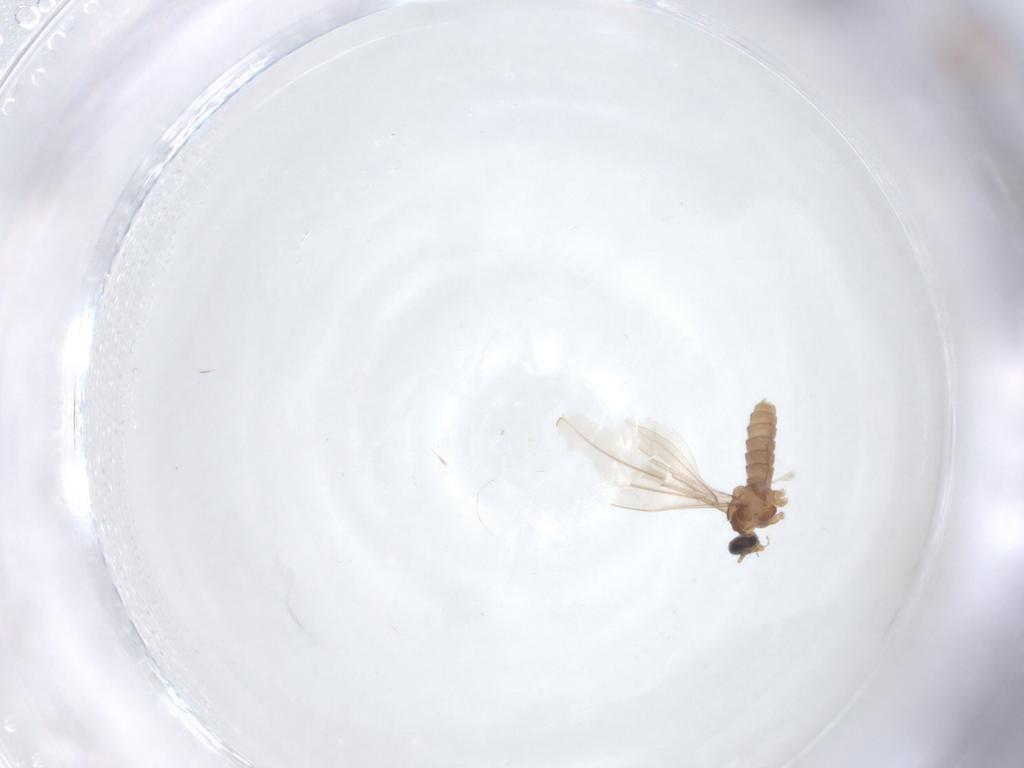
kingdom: Animalia
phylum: Arthropoda
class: Insecta
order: Diptera
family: Cecidomyiidae
